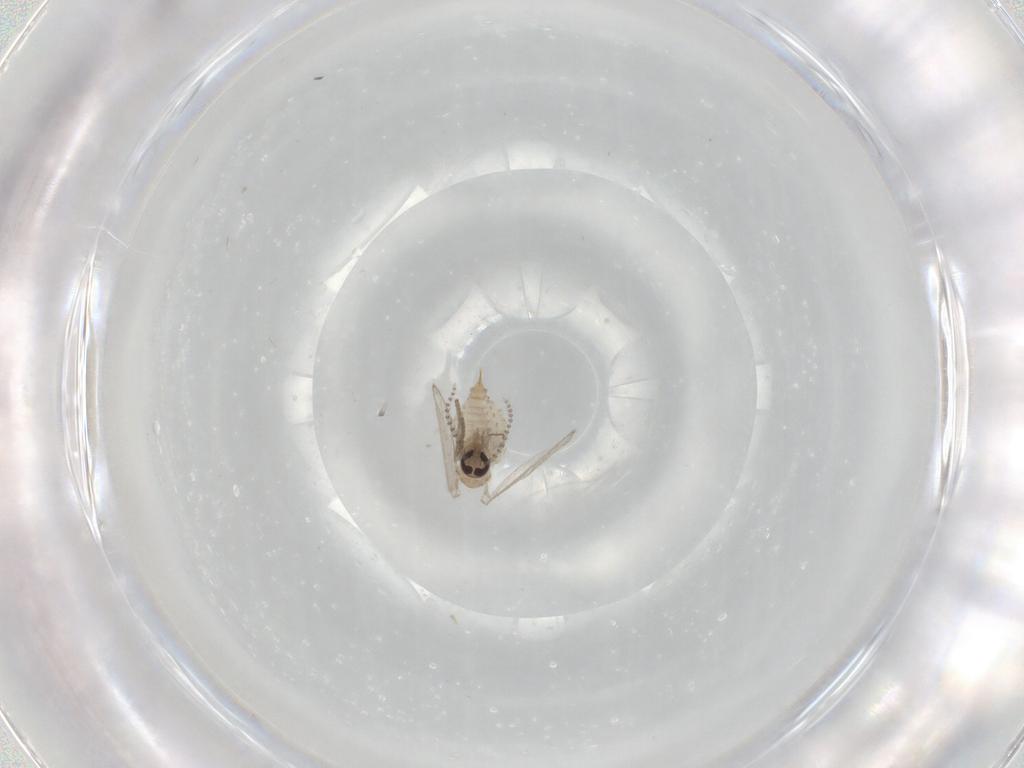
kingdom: Animalia
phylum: Arthropoda
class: Insecta
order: Diptera
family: Psychodidae
